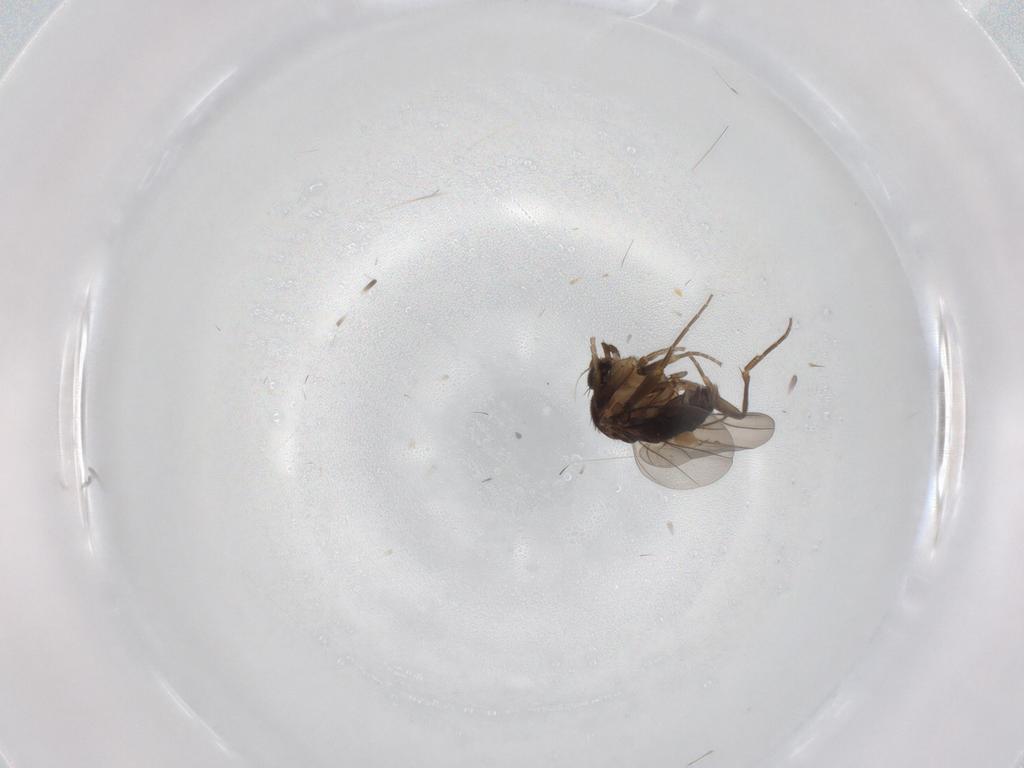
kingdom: Animalia
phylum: Arthropoda
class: Insecta
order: Diptera
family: Phoridae
